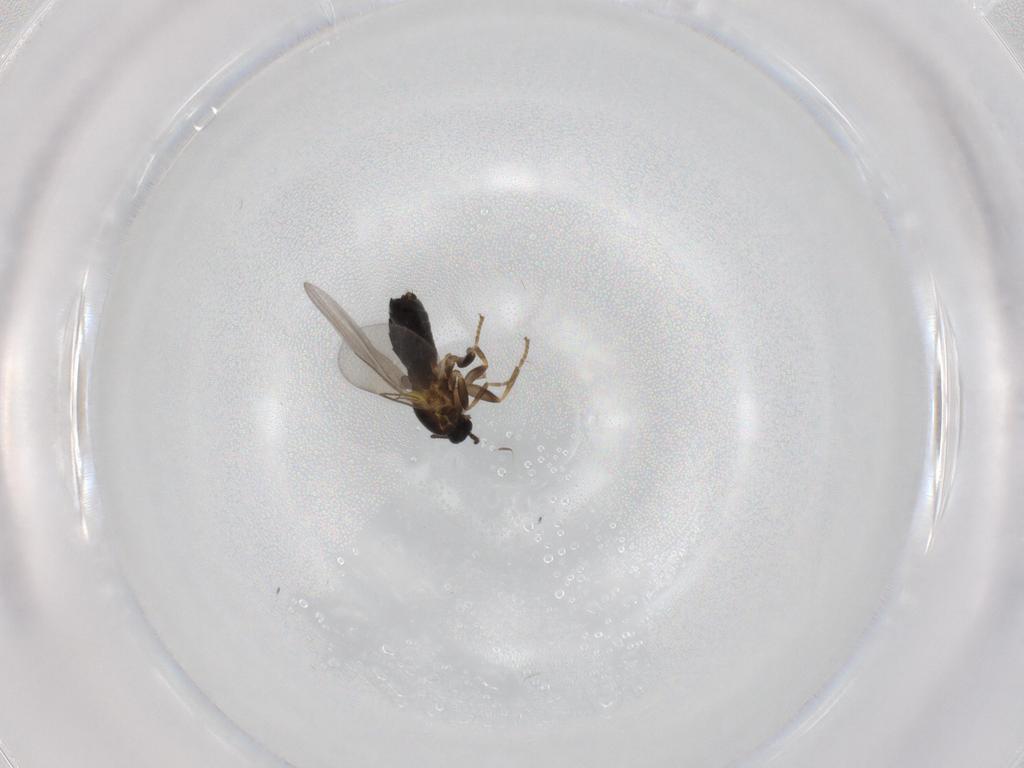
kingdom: Animalia
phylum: Arthropoda
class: Insecta
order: Diptera
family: Scatopsidae
